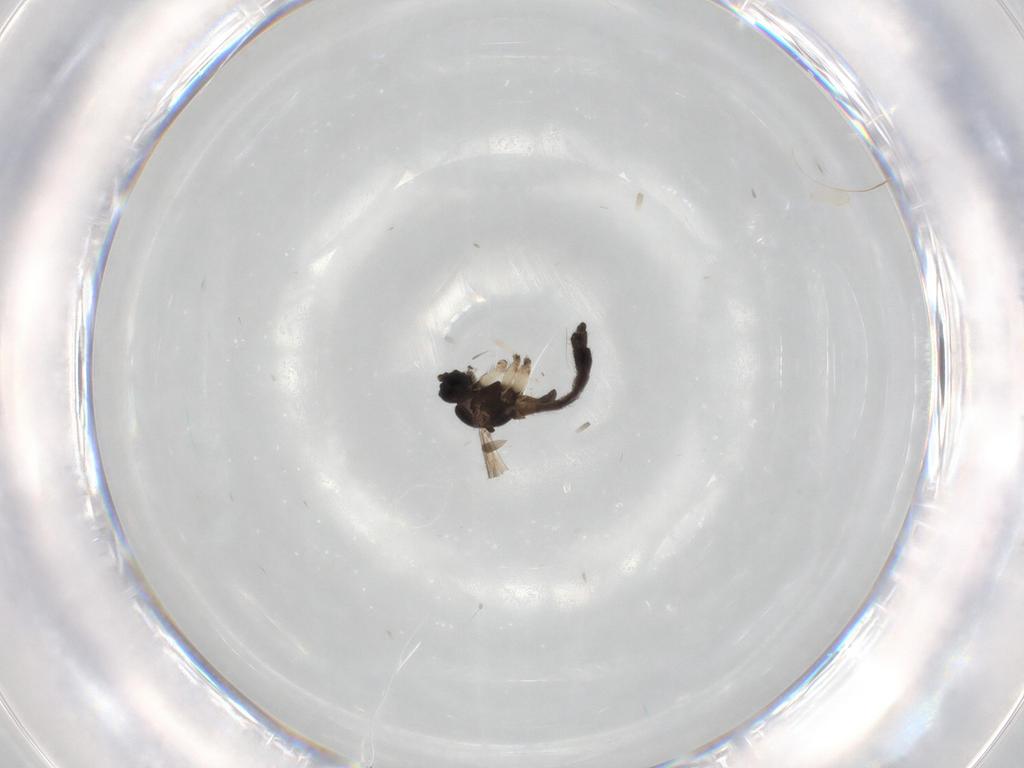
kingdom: Animalia
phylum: Arthropoda
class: Insecta
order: Diptera
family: Sciaridae
